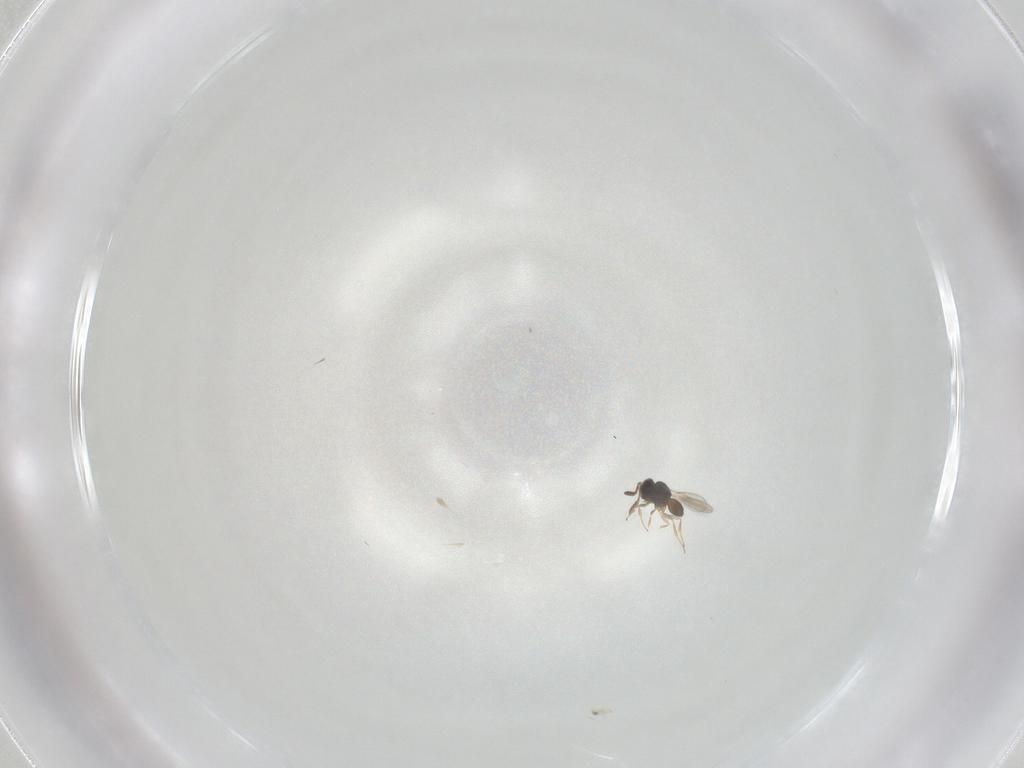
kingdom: Animalia
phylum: Arthropoda
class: Insecta
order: Hymenoptera
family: Scelionidae
